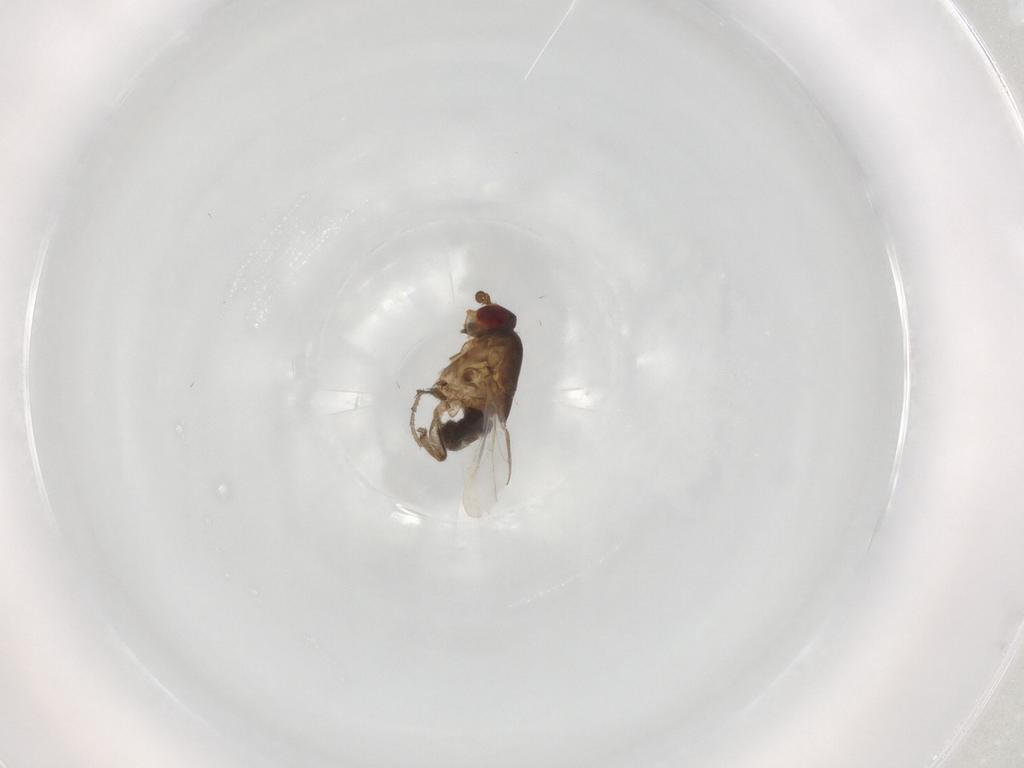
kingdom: Animalia
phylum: Arthropoda
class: Insecta
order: Diptera
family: Sphaeroceridae
